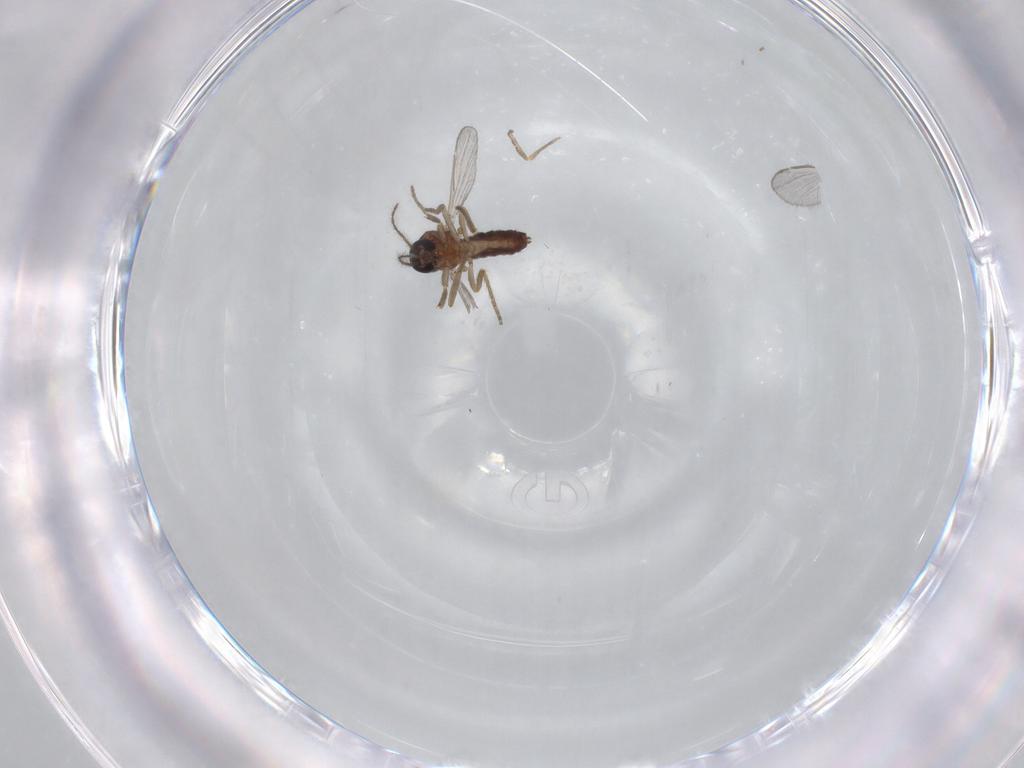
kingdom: Animalia
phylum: Arthropoda
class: Insecta
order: Diptera
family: Ceratopogonidae
